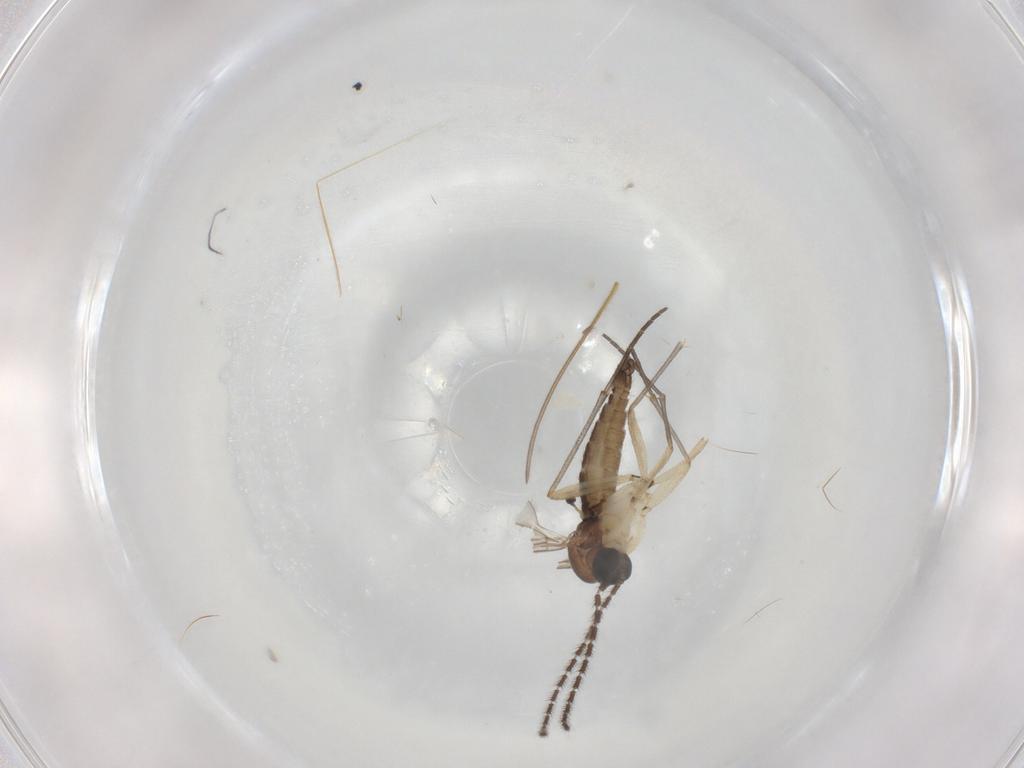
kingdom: Animalia
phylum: Arthropoda
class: Insecta
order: Diptera
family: Sciaridae
